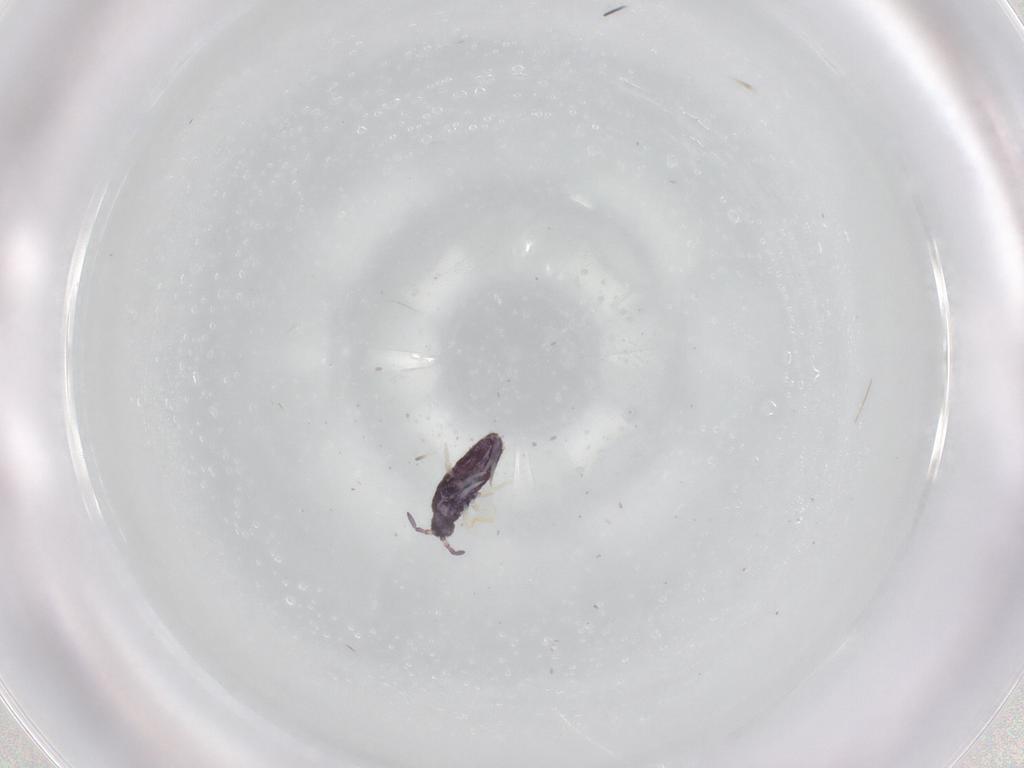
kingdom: Animalia
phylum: Arthropoda
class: Collembola
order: Entomobryomorpha
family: Entomobryidae
